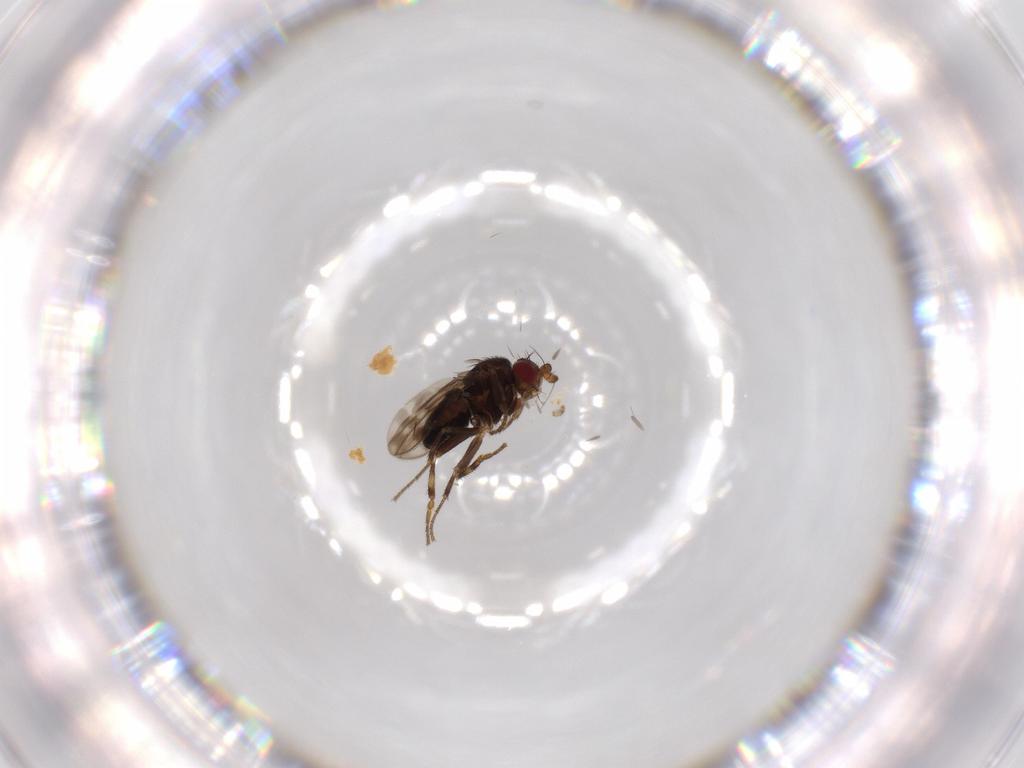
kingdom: Animalia
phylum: Arthropoda
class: Insecta
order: Diptera
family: Sphaeroceridae
